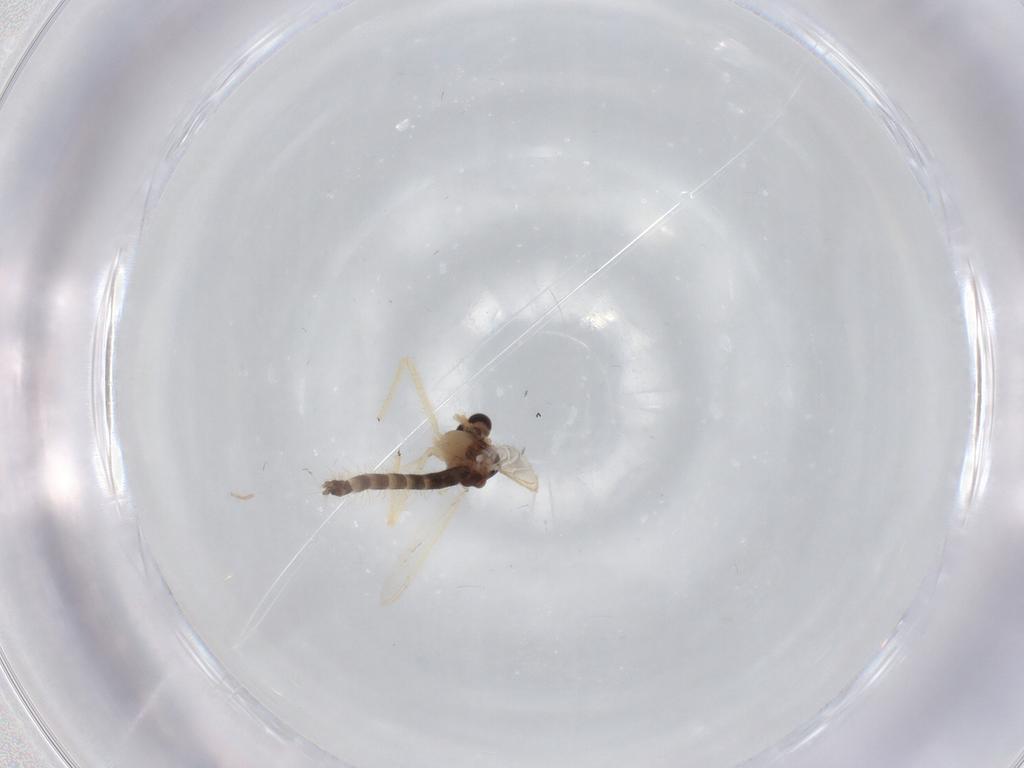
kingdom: Animalia
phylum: Arthropoda
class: Insecta
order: Diptera
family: Chironomidae
